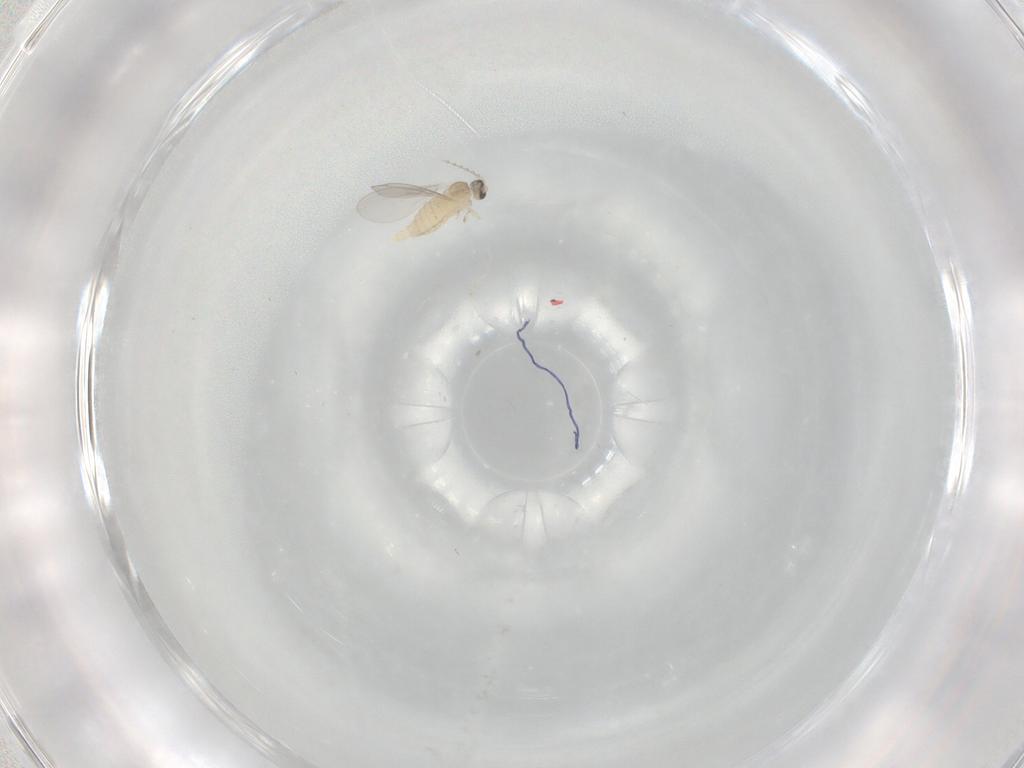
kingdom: Animalia
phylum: Arthropoda
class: Insecta
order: Diptera
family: Cecidomyiidae
